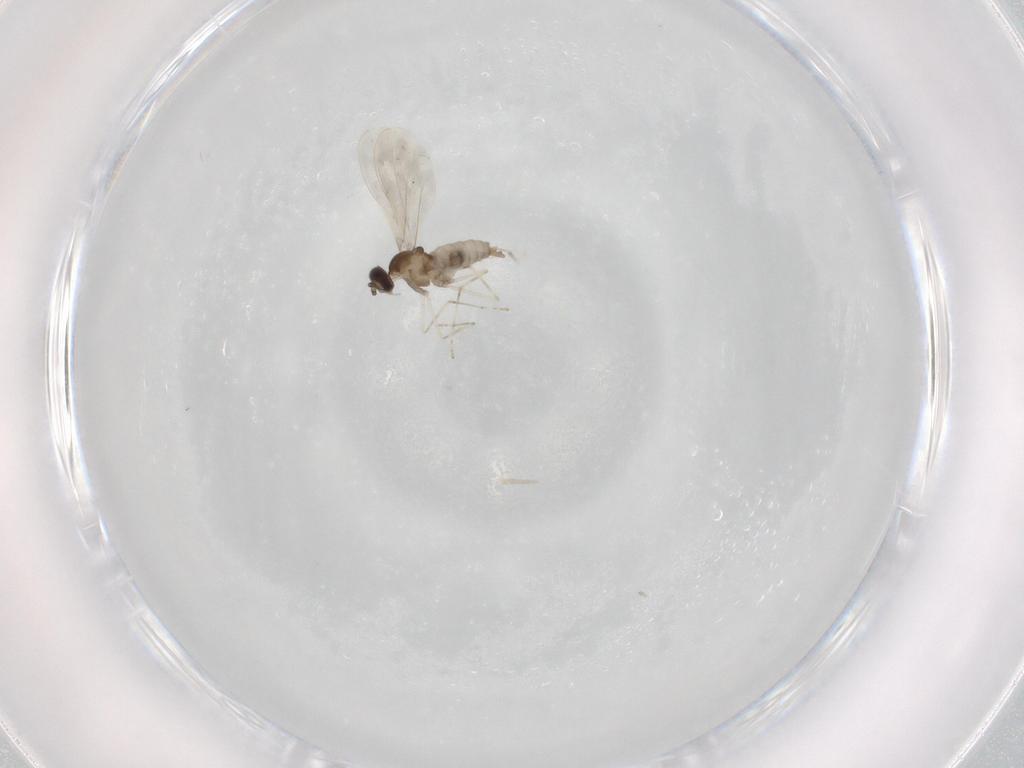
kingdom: Animalia
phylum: Arthropoda
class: Insecta
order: Diptera
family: Cecidomyiidae
